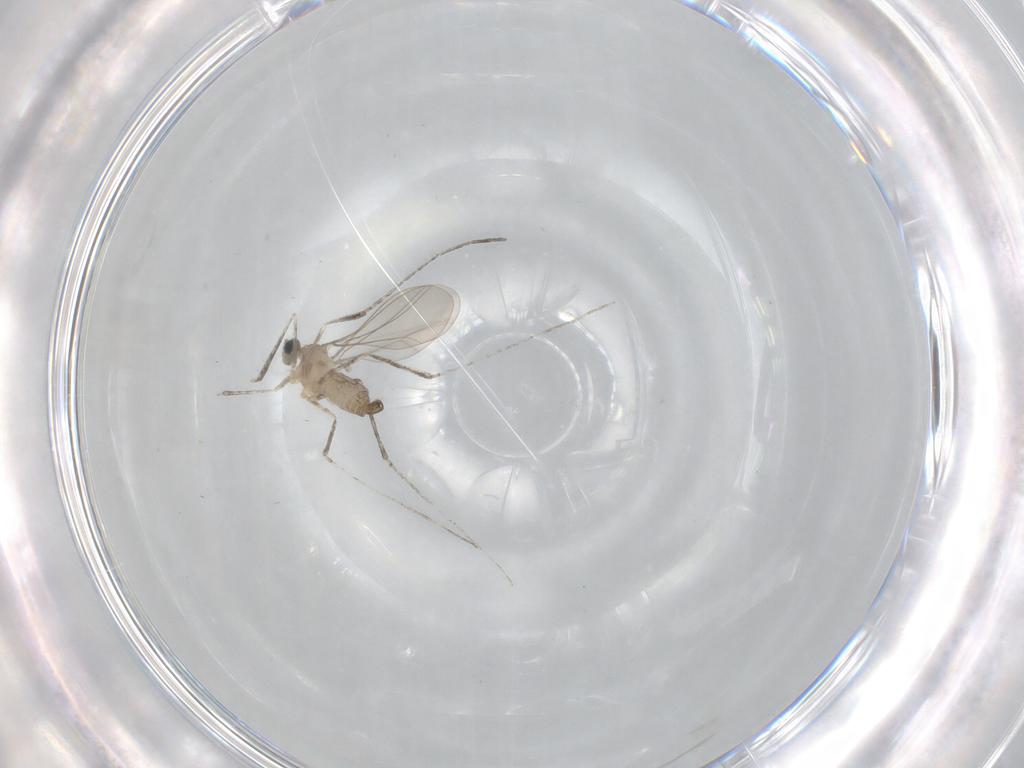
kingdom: Animalia
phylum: Arthropoda
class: Insecta
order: Diptera
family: Cecidomyiidae
